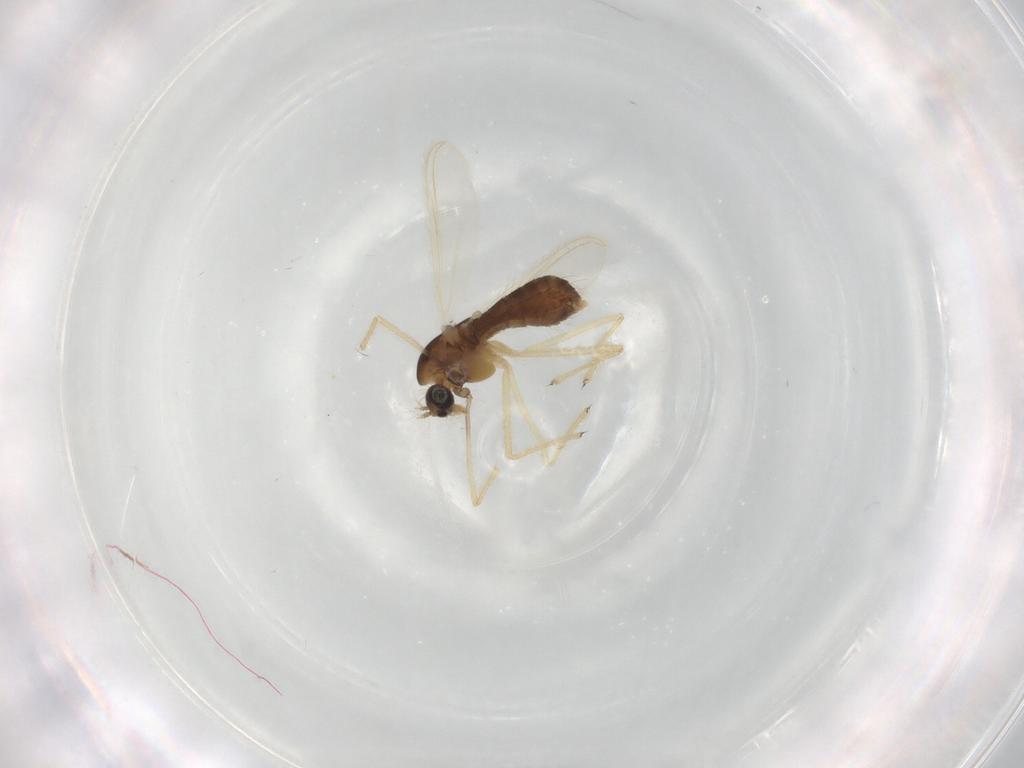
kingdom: Animalia
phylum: Arthropoda
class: Insecta
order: Diptera
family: Chironomidae
